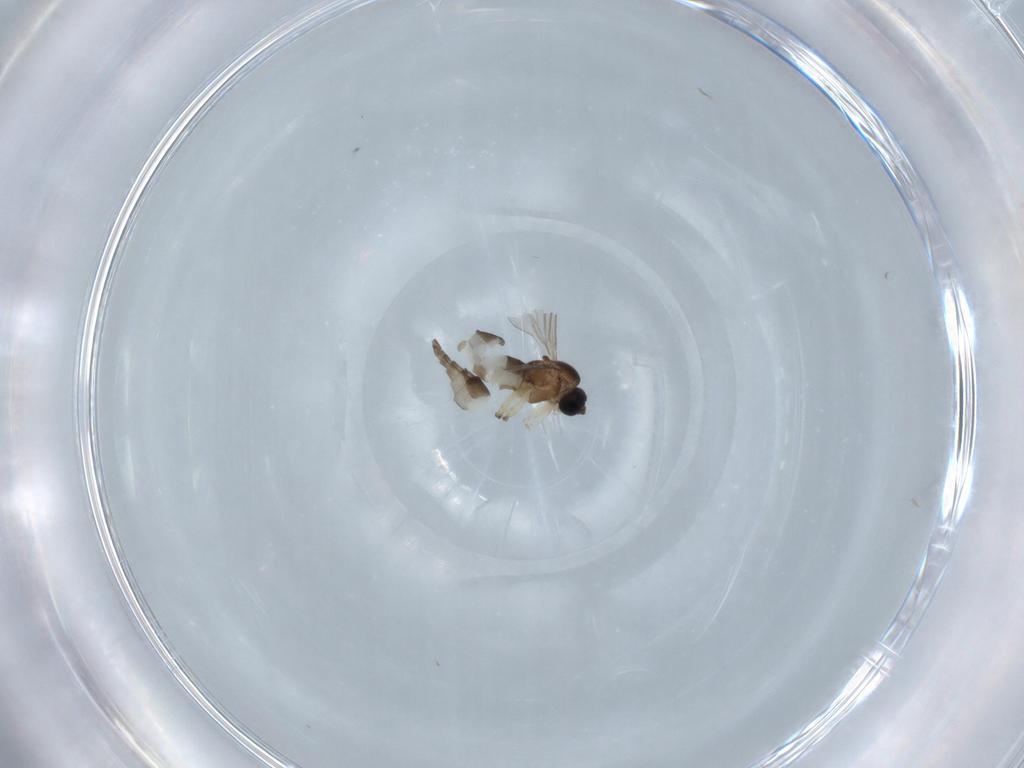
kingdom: Animalia
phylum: Arthropoda
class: Insecta
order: Diptera
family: Sciaridae
